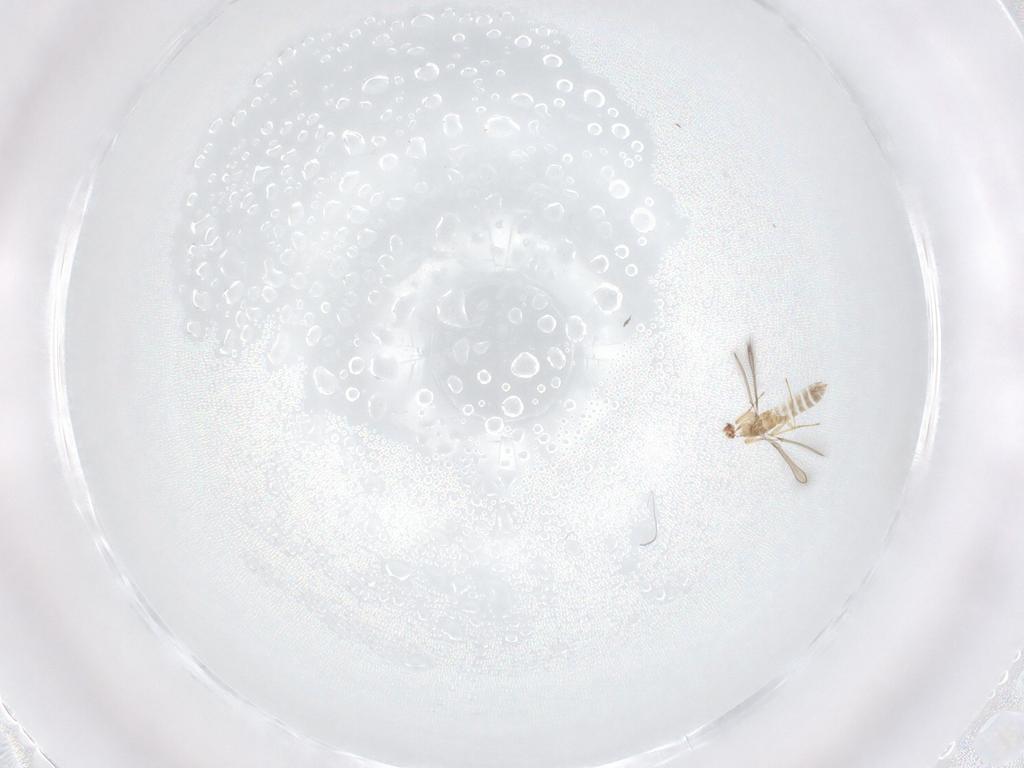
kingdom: Animalia
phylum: Arthropoda
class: Insecta
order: Hymenoptera
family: Mymaridae
